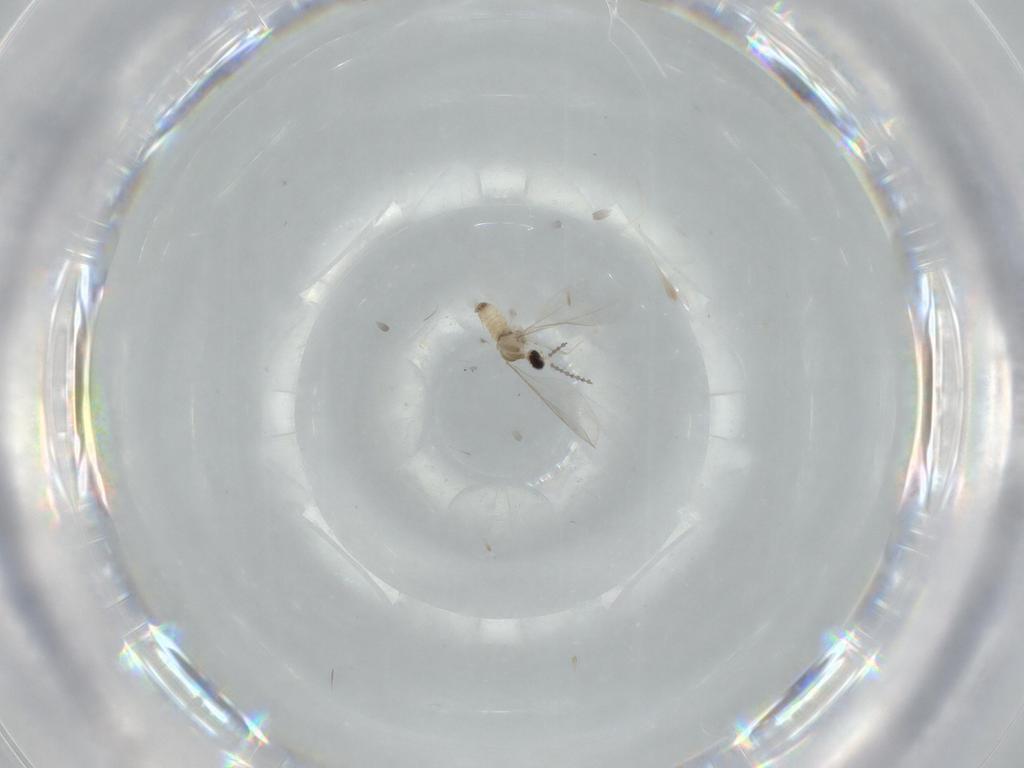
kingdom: Animalia
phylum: Arthropoda
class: Insecta
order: Diptera
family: Cecidomyiidae
